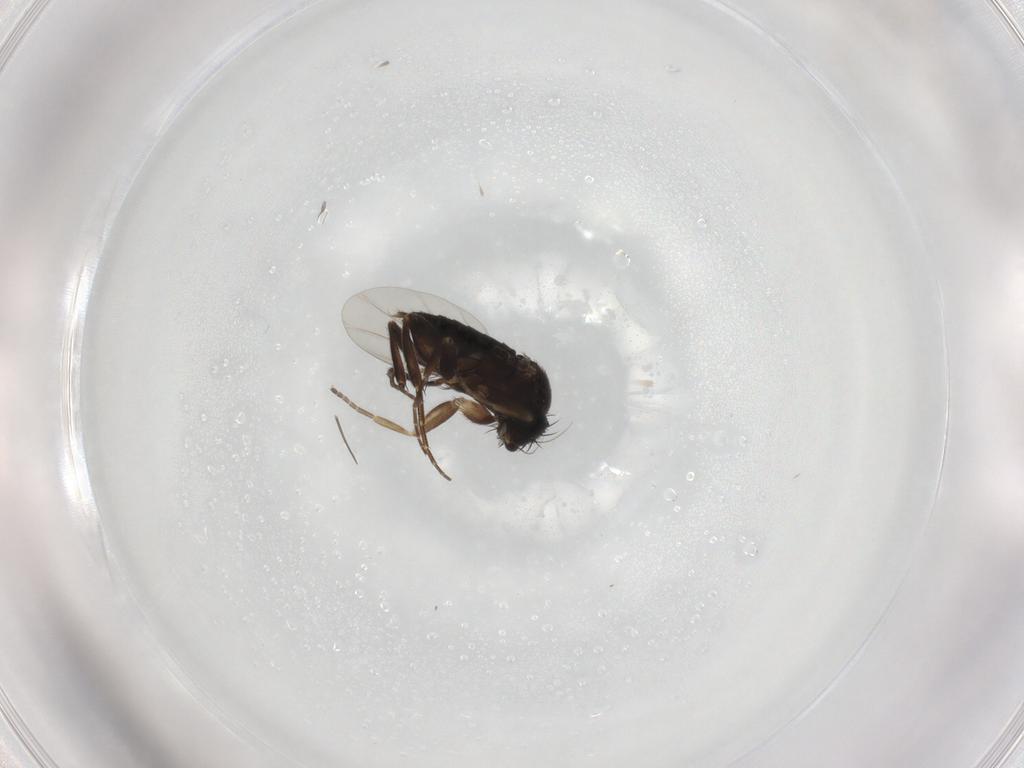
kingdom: Animalia
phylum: Arthropoda
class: Insecta
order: Diptera
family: Phoridae
